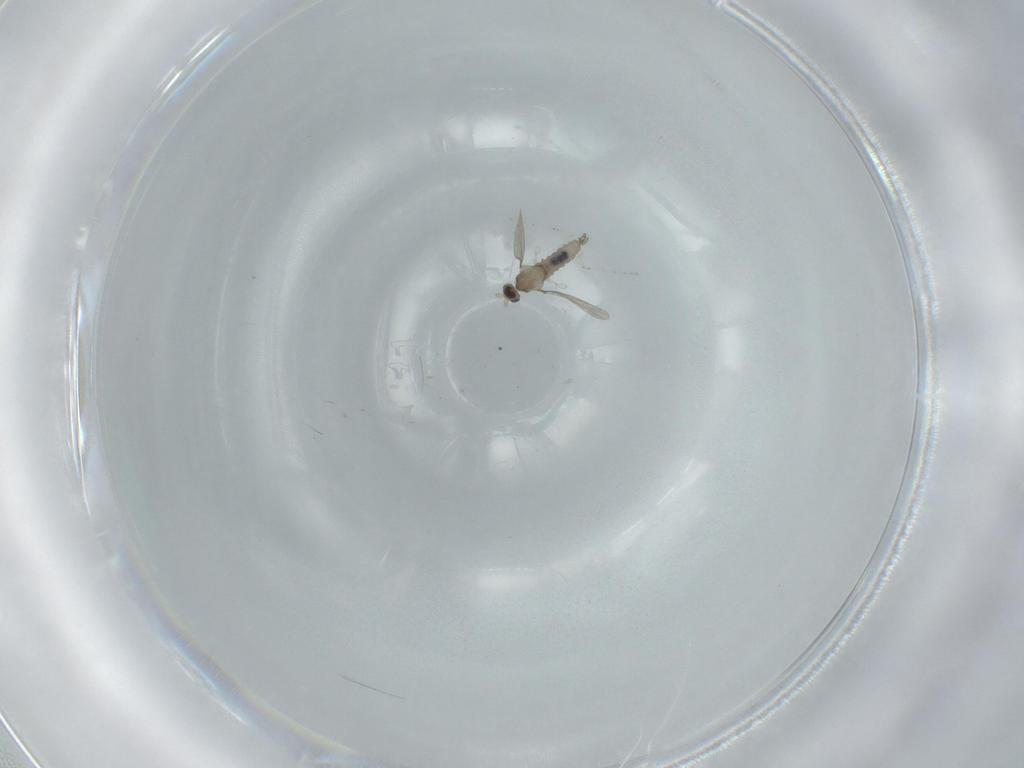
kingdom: Animalia
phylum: Arthropoda
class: Insecta
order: Diptera
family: Cecidomyiidae
